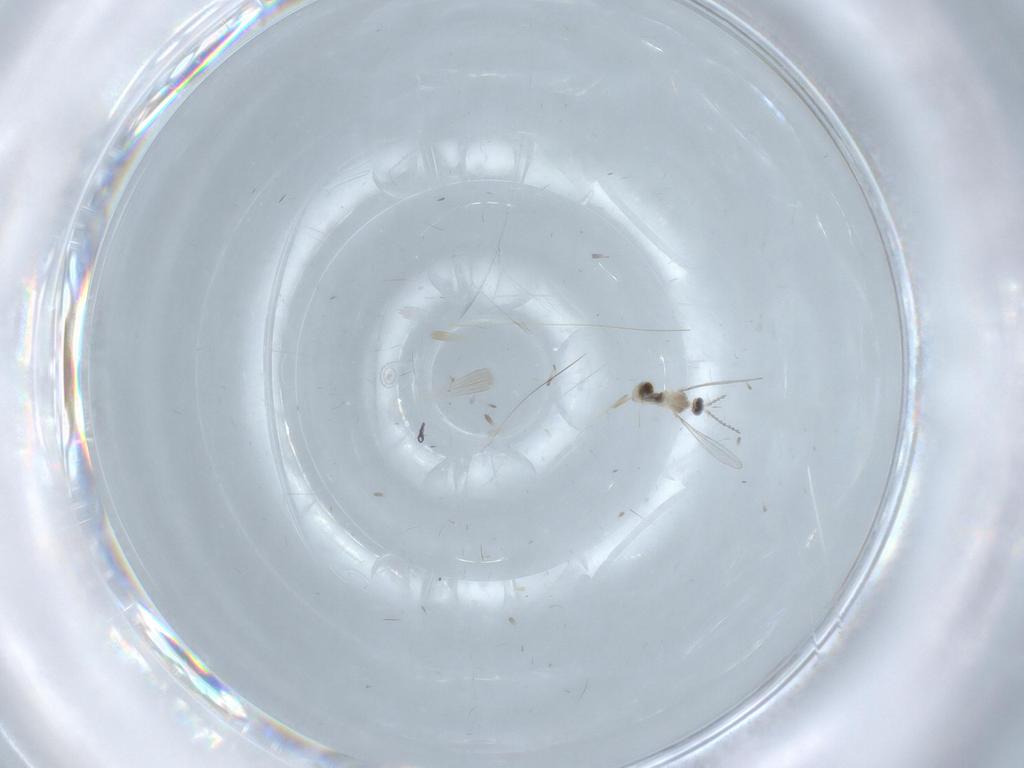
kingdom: Animalia
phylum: Arthropoda
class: Insecta
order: Diptera
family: Cecidomyiidae
